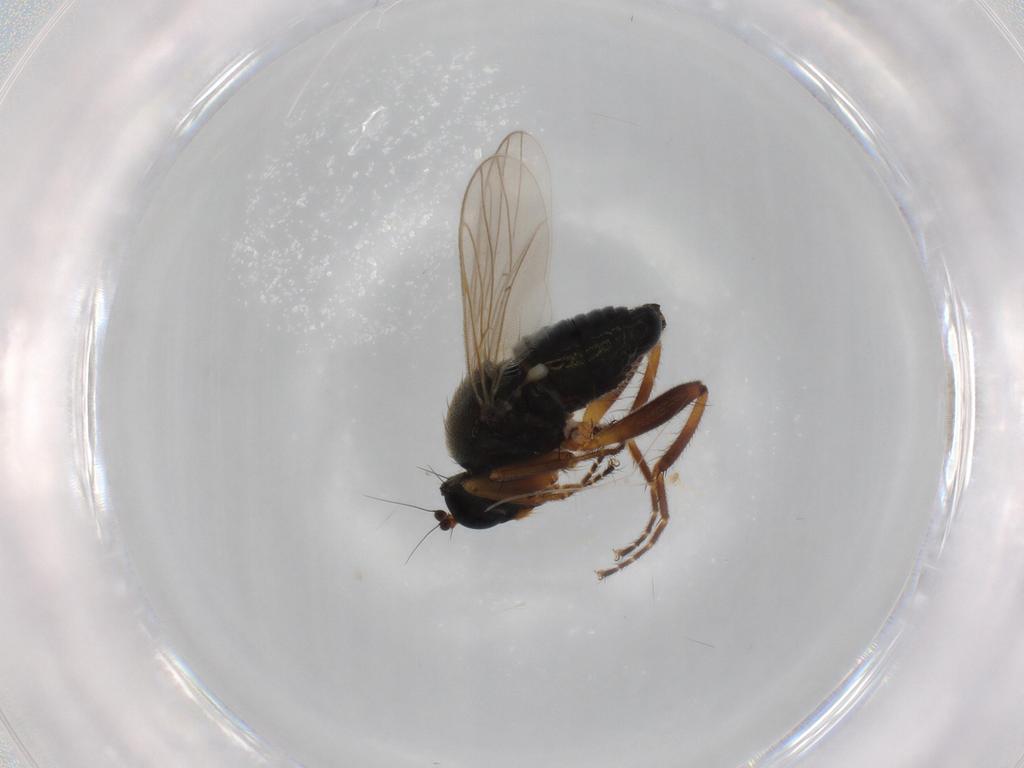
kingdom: Animalia
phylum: Arthropoda
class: Insecta
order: Diptera
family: Hybotidae
